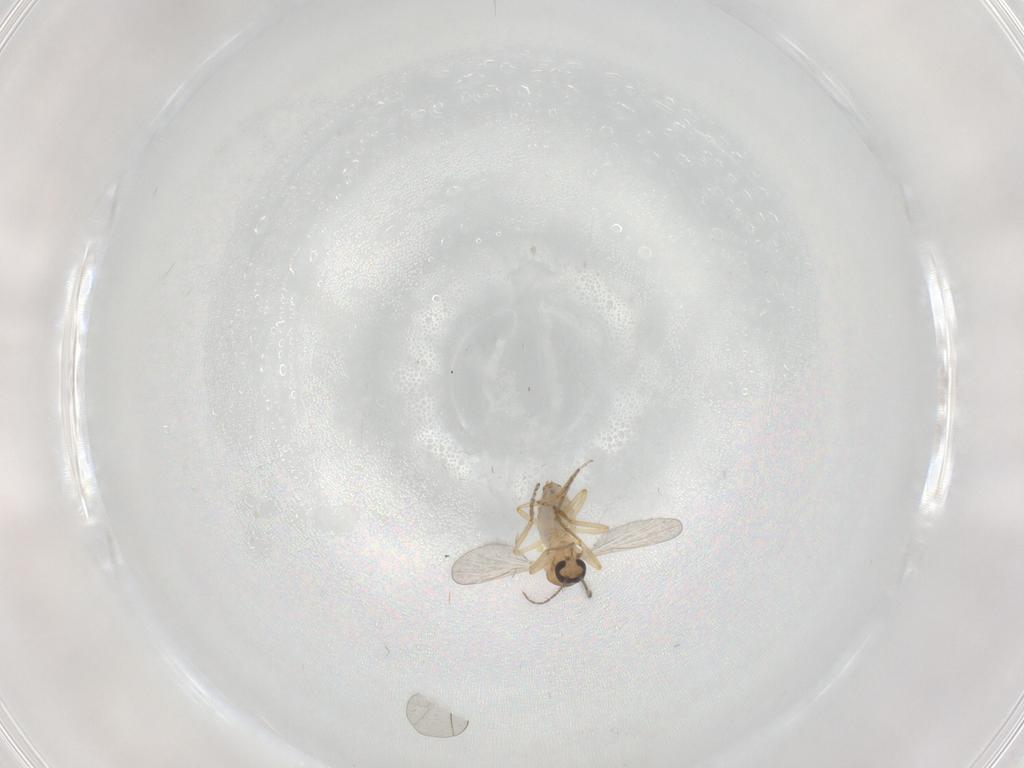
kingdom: Animalia
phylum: Arthropoda
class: Insecta
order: Diptera
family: Ceratopogonidae
